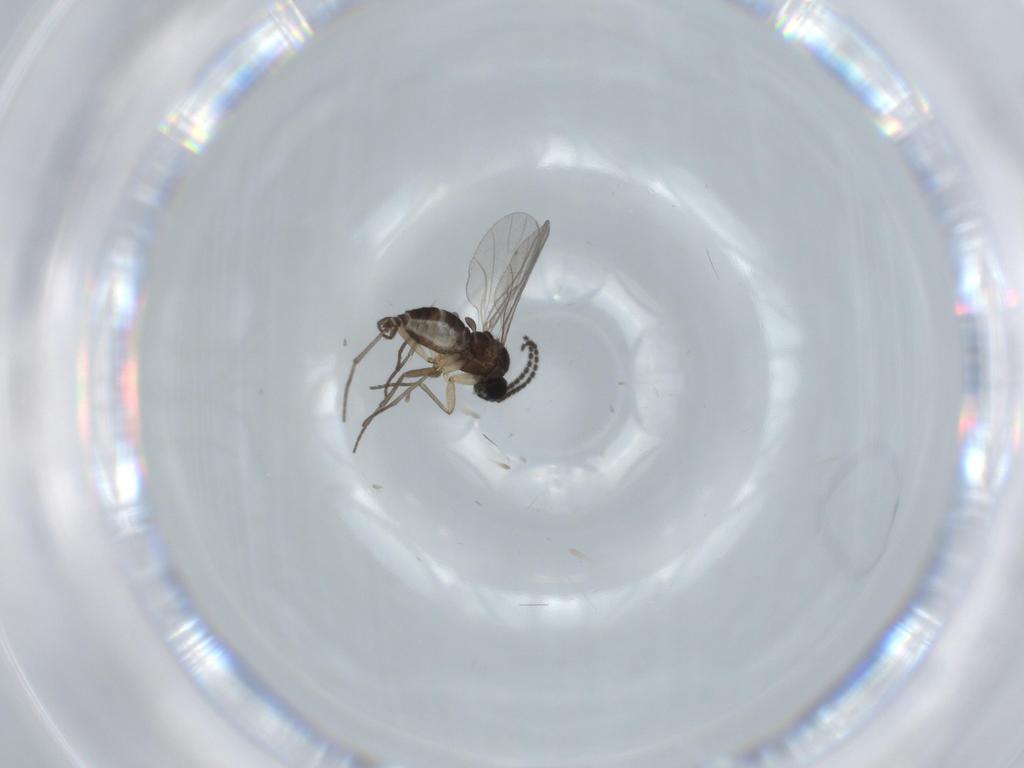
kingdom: Animalia
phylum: Arthropoda
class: Insecta
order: Diptera
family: Sciaridae
